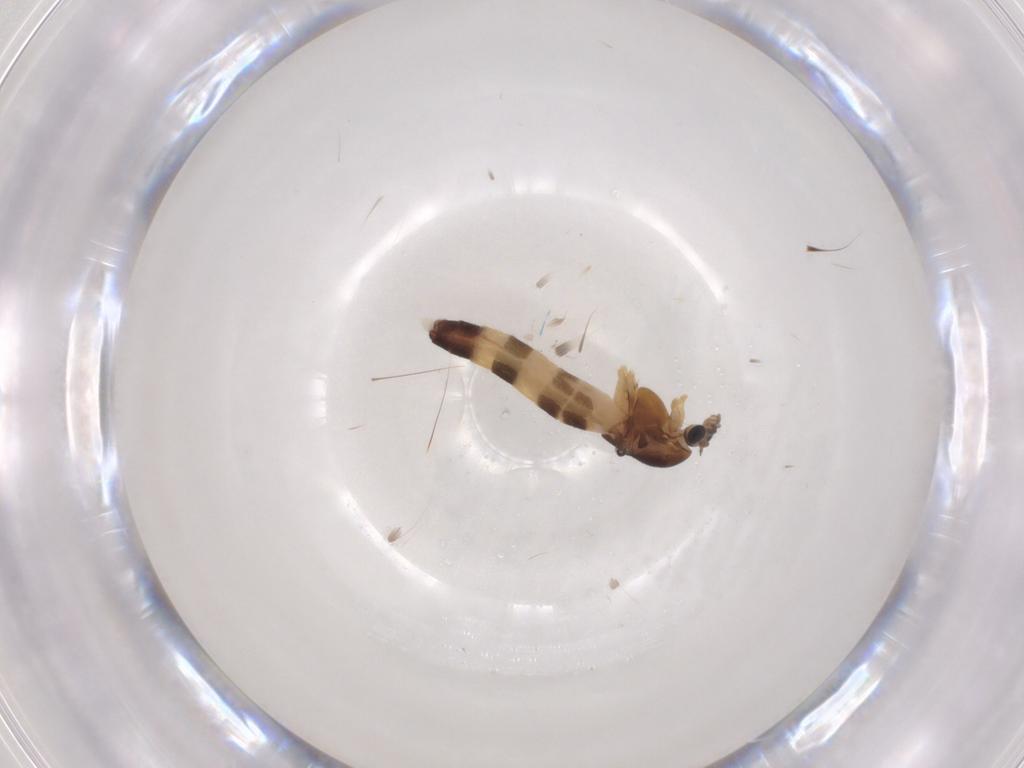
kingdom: Animalia
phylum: Arthropoda
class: Insecta
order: Diptera
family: Chironomidae
